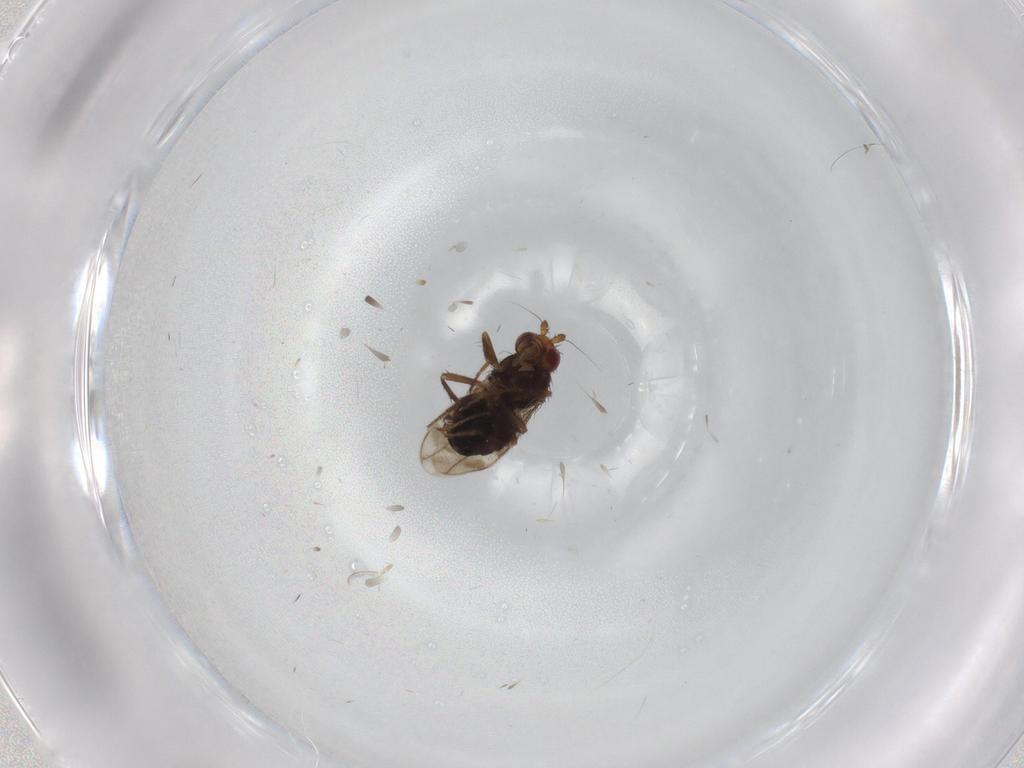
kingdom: Animalia
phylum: Arthropoda
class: Insecta
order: Diptera
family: Sphaeroceridae
